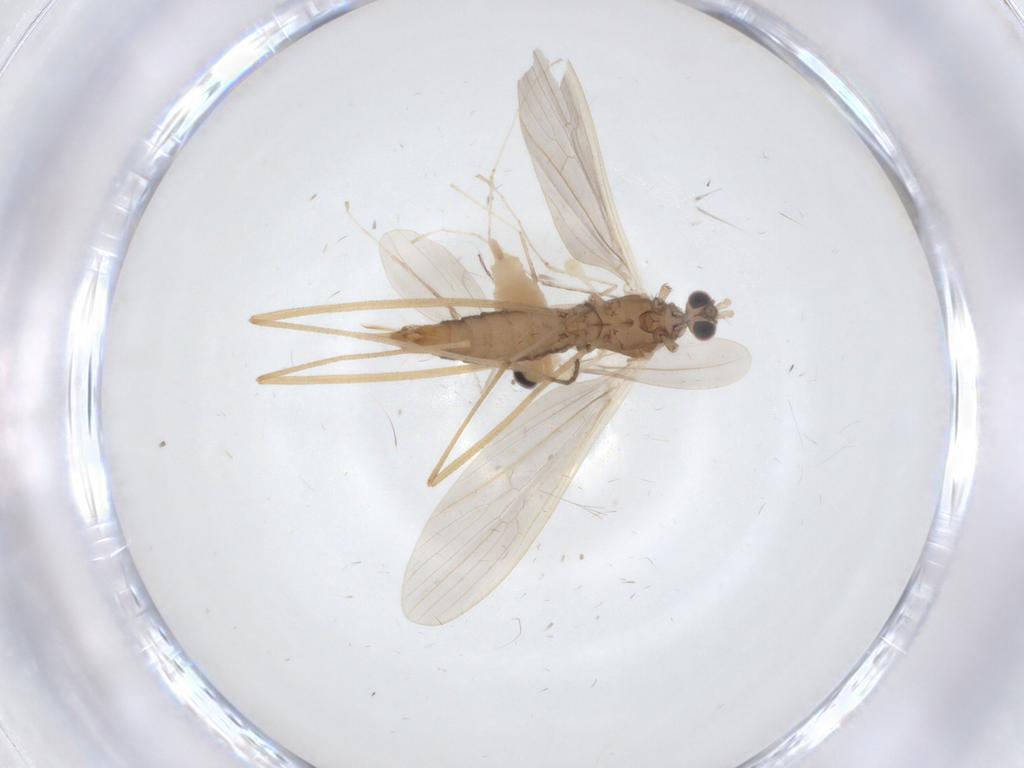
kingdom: Animalia
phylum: Arthropoda
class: Insecta
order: Diptera
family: Limoniidae
